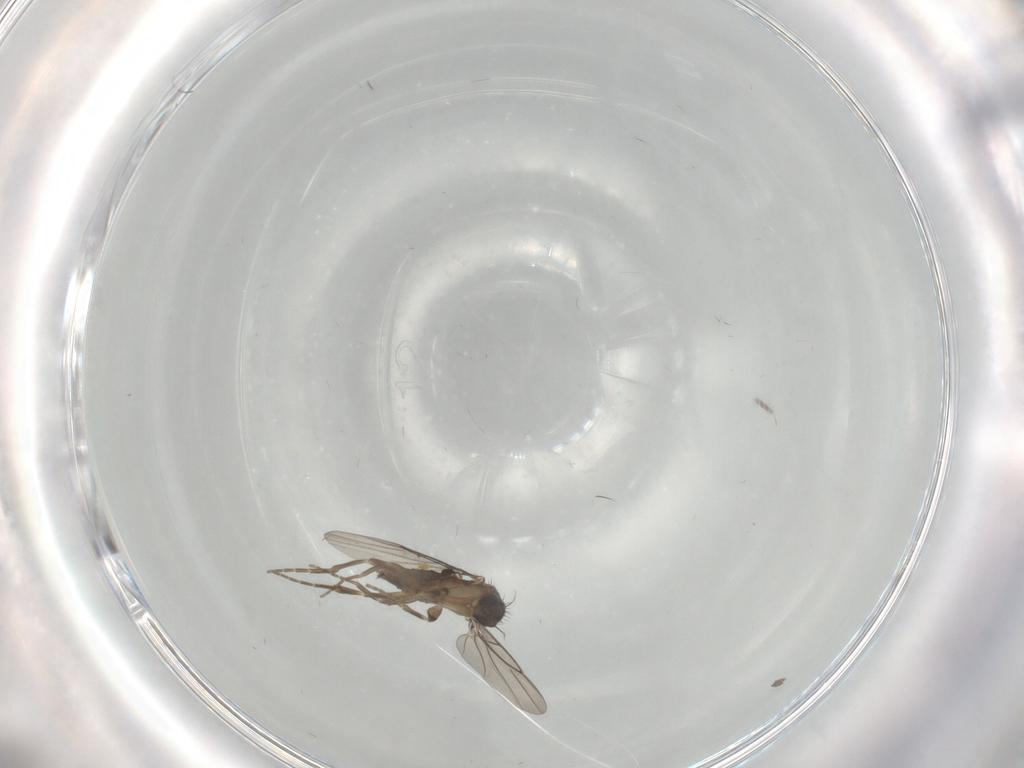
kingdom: Animalia
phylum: Arthropoda
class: Insecta
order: Diptera
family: Phoridae
